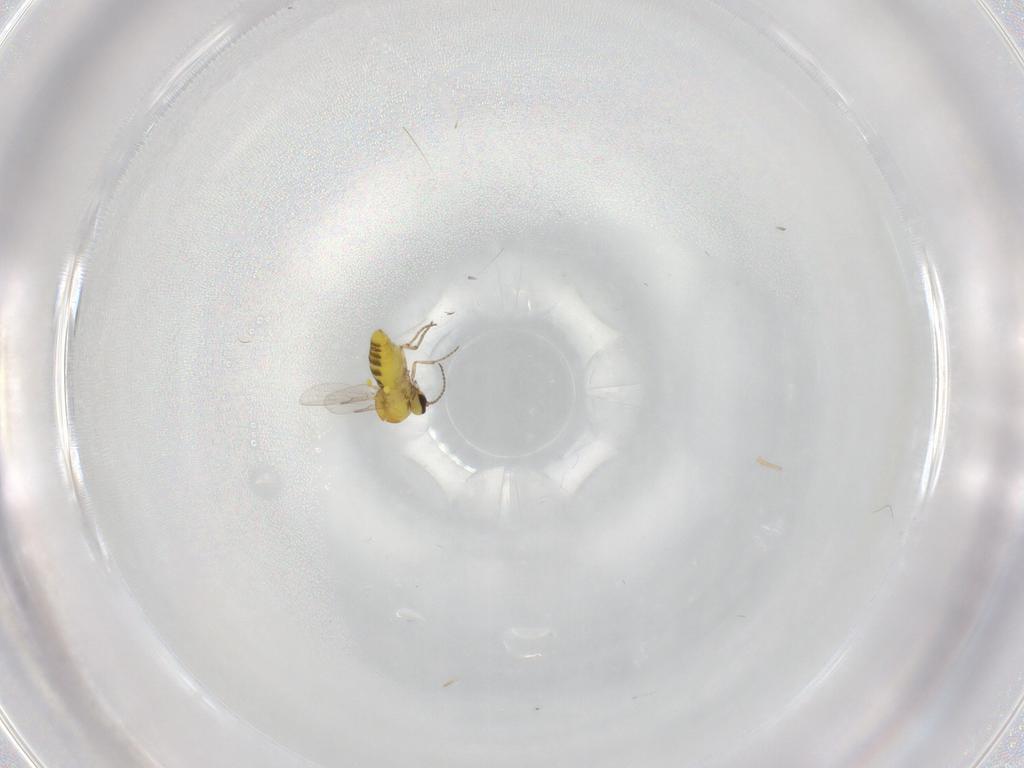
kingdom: Animalia
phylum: Arthropoda
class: Insecta
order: Diptera
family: Ceratopogonidae
